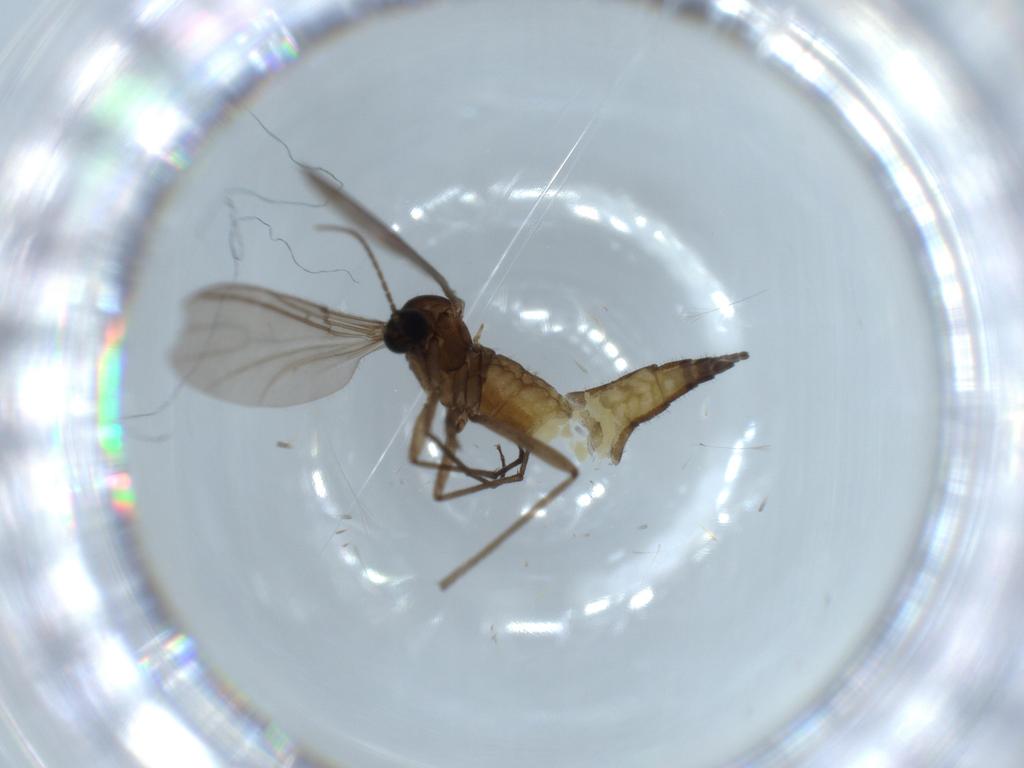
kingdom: Animalia
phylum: Arthropoda
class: Insecta
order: Diptera
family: Sciaridae
